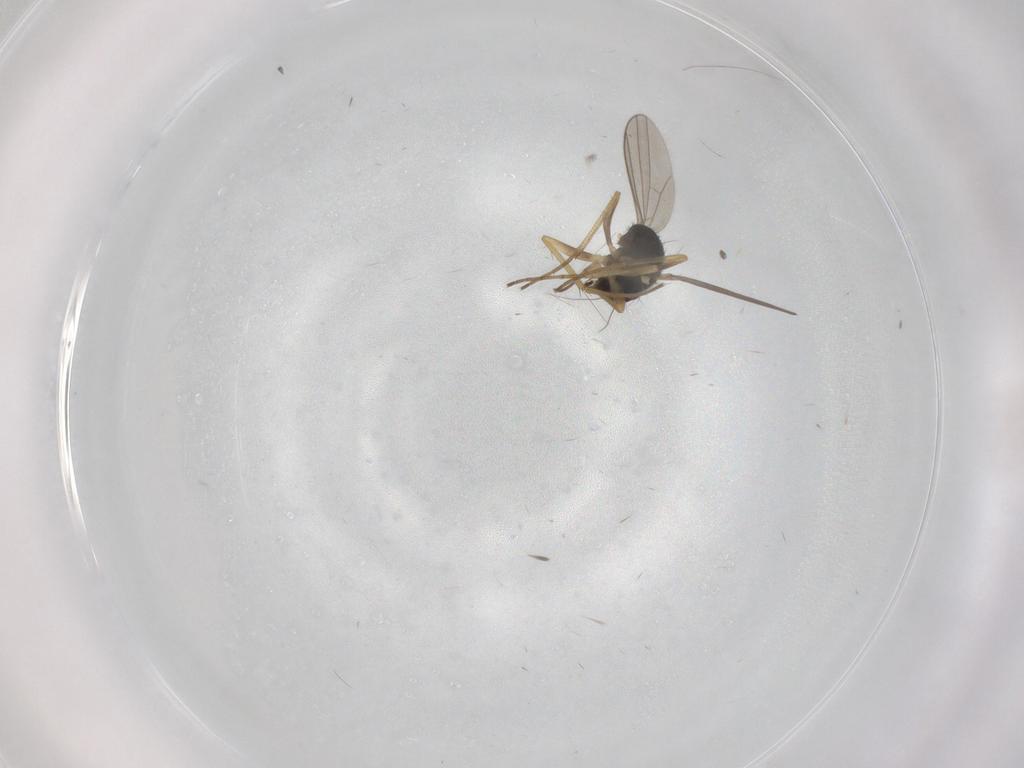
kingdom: Animalia
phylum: Arthropoda
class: Insecta
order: Diptera
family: Dolichopodidae
